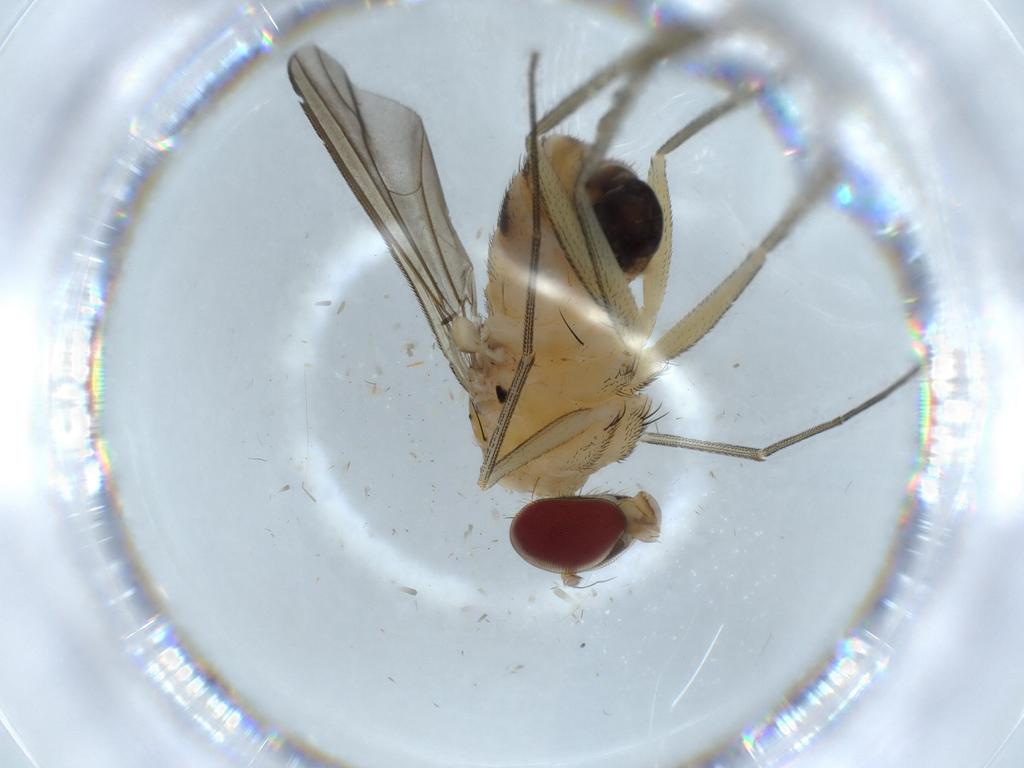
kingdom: Animalia
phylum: Arthropoda
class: Insecta
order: Diptera
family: Dolichopodidae
